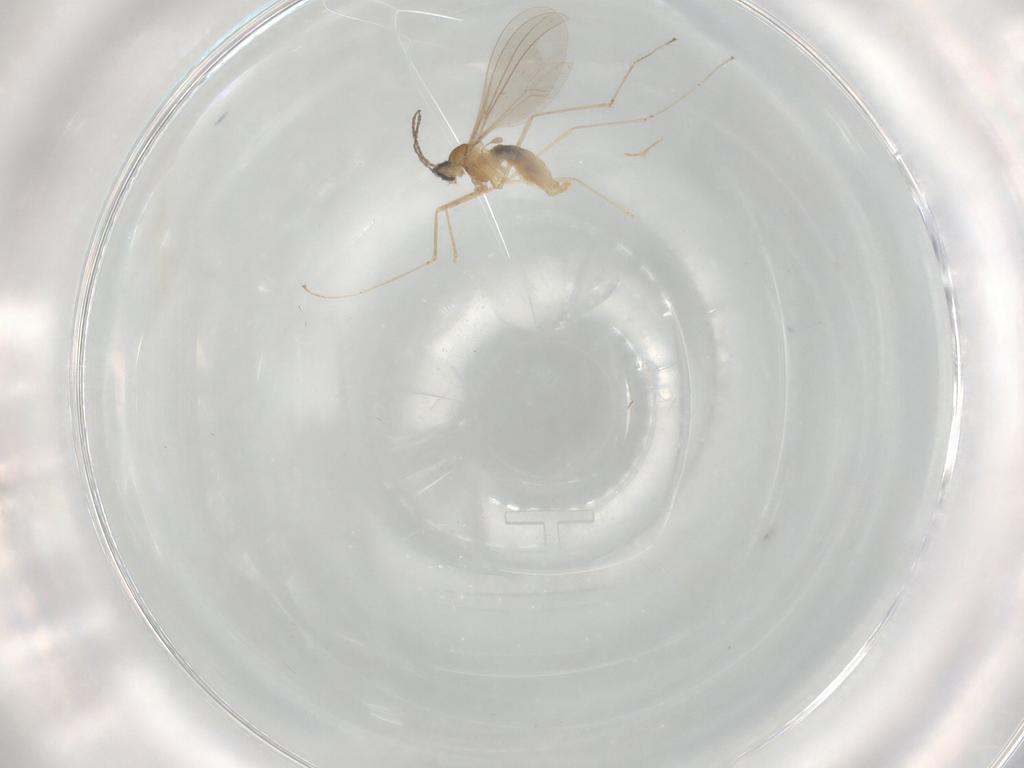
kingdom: Animalia
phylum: Arthropoda
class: Insecta
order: Diptera
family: Cecidomyiidae
